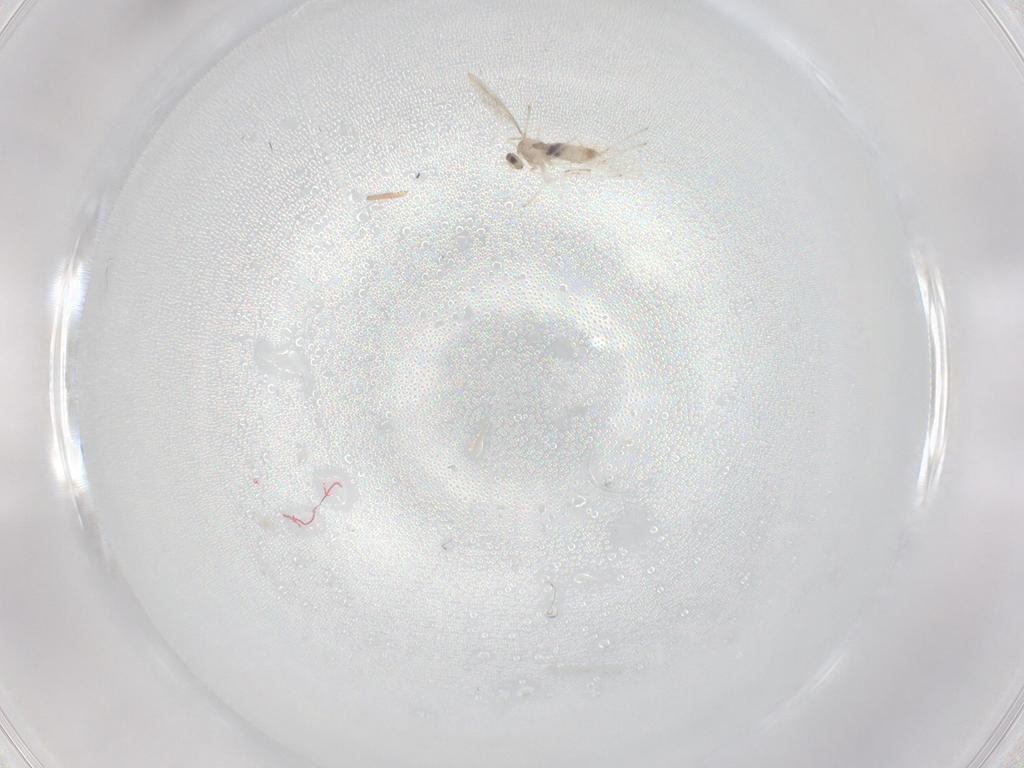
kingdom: Animalia
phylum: Arthropoda
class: Insecta
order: Diptera
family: Cecidomyiidae
